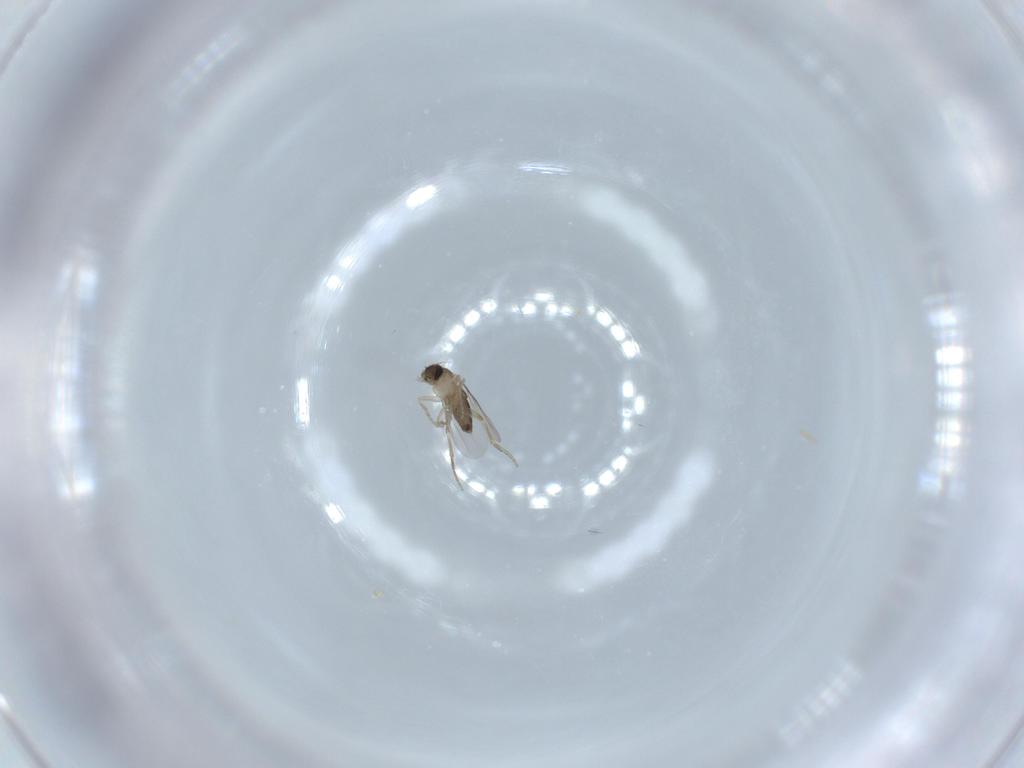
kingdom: Animalia
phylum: Arthropoda
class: Insecta
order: Diptera
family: Phoridae
